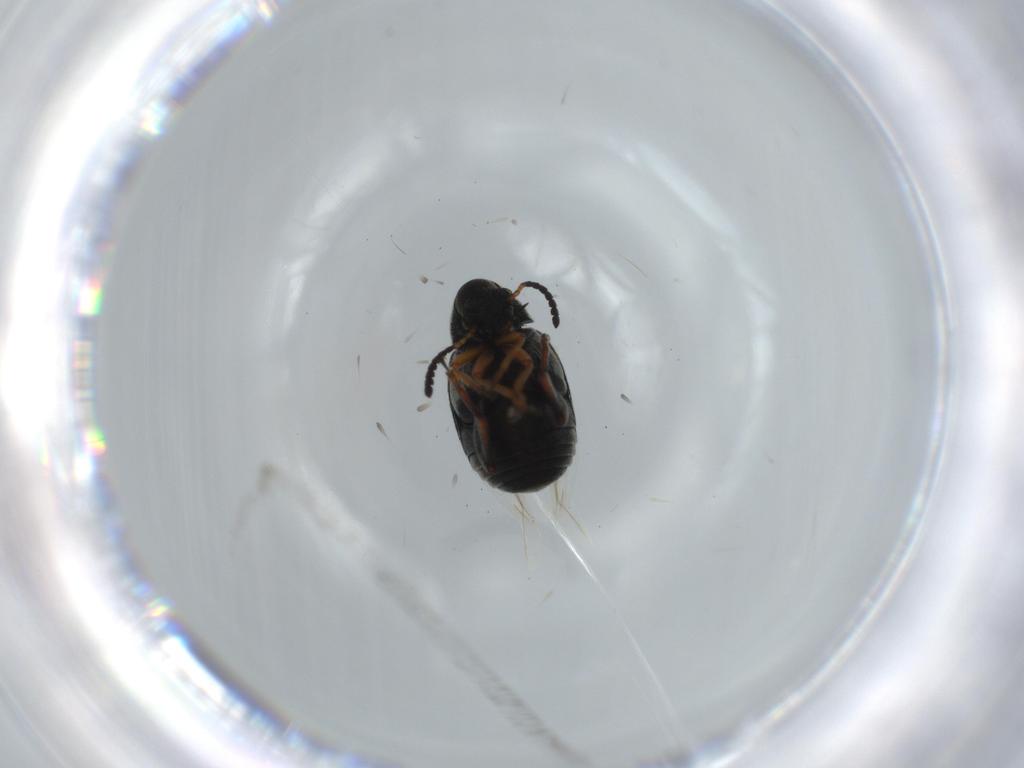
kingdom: Animalia
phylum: Arthropoda
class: Insecta
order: Coleoptera
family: Chrysomelidae
